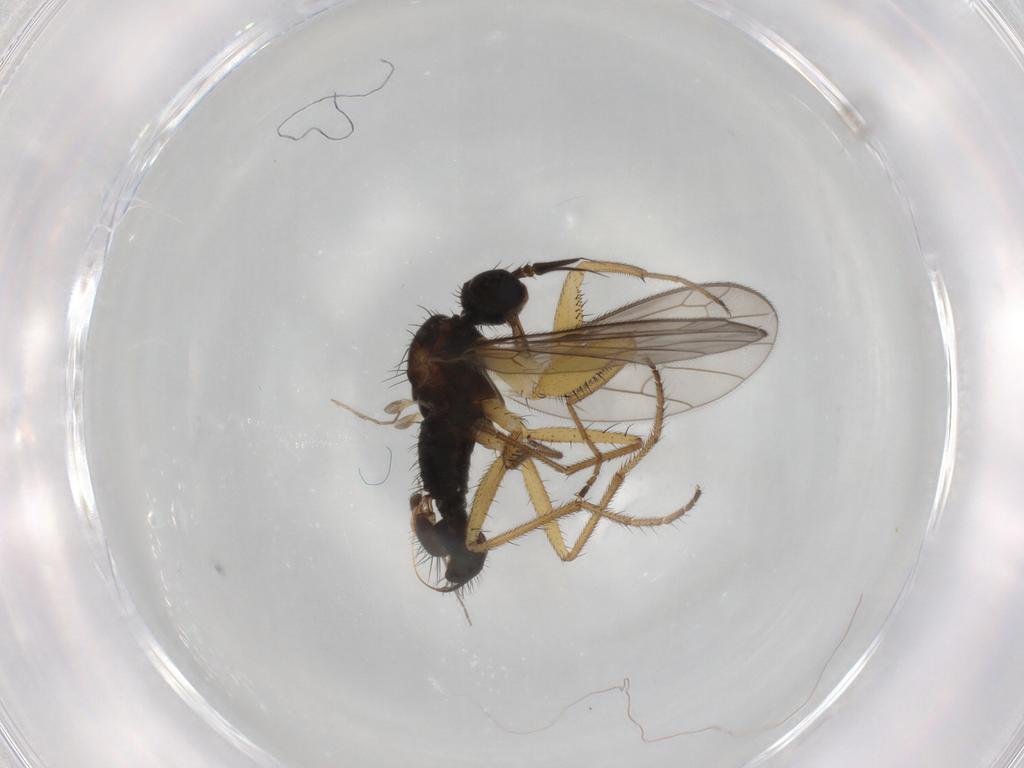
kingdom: Animalia
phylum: Arthropoda
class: Insecta
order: Diptera
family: Empididae
